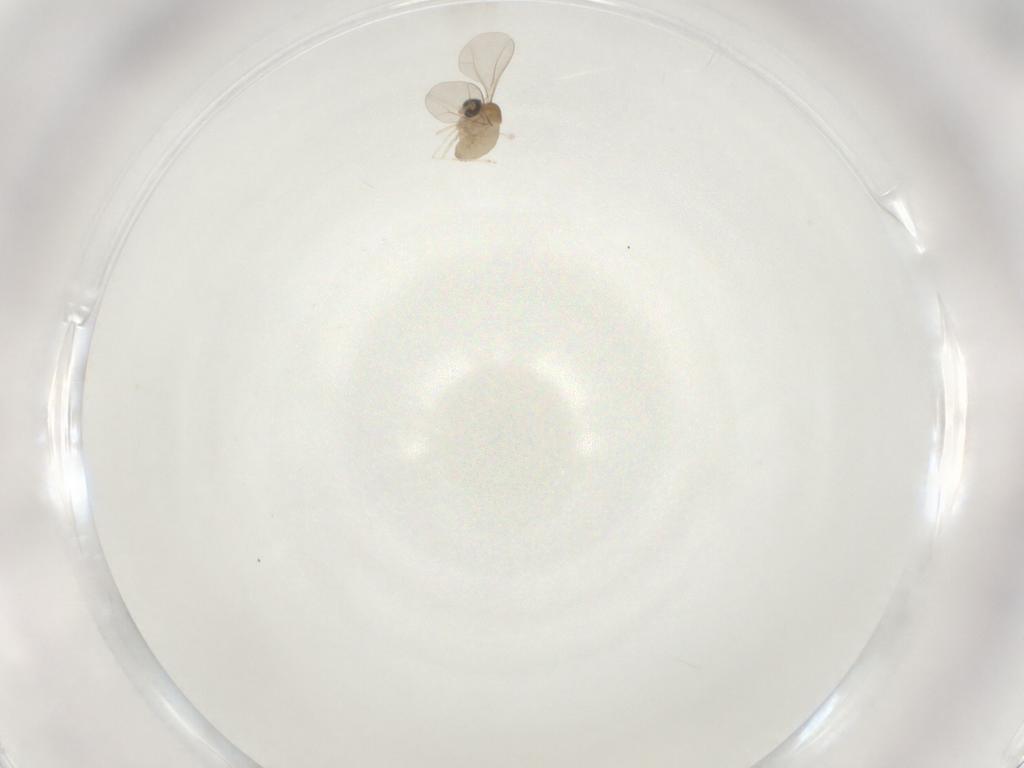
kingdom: Animalia
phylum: Arthropoda
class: Insecta
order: Diptera
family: Cecidomyiidae
